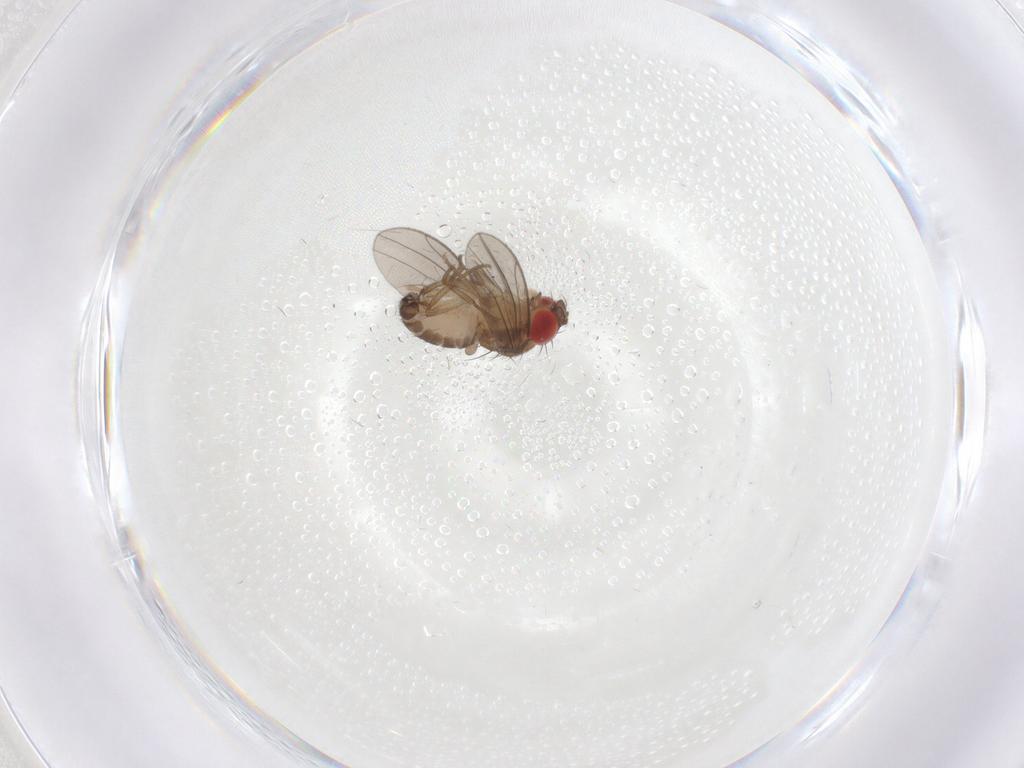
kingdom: Animalia
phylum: Arthropoda
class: Insecta
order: Diptera
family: Drosophilidae
